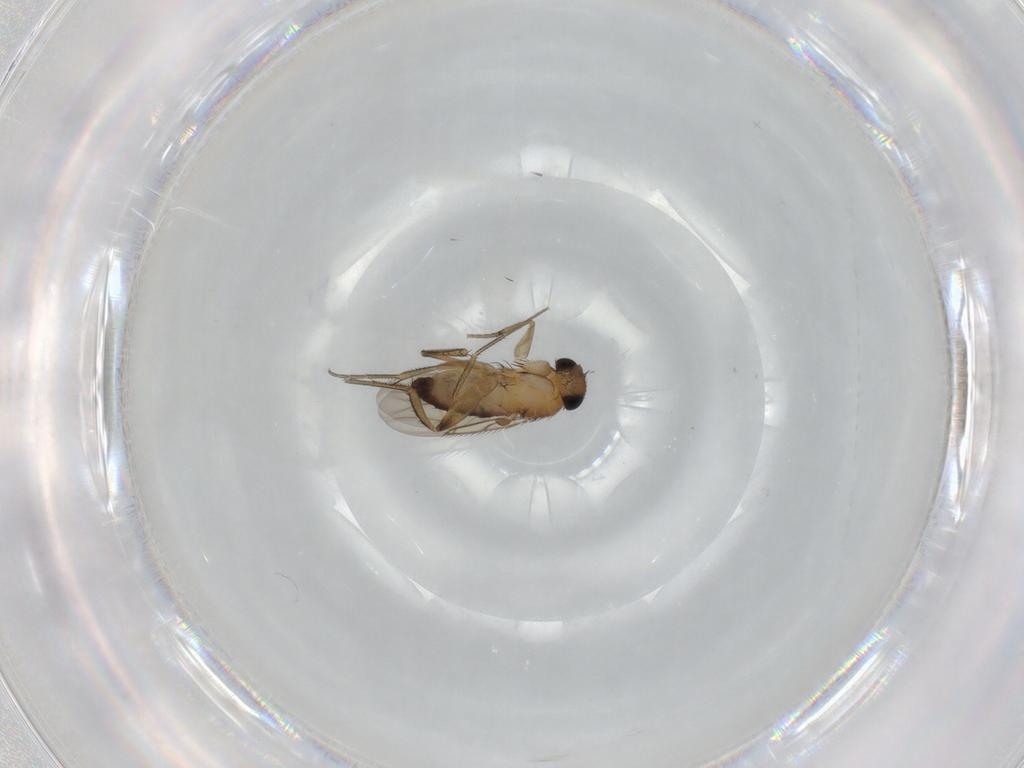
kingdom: Animalia
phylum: Arthropoda
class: Insecta
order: Diptera
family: Phoridae
